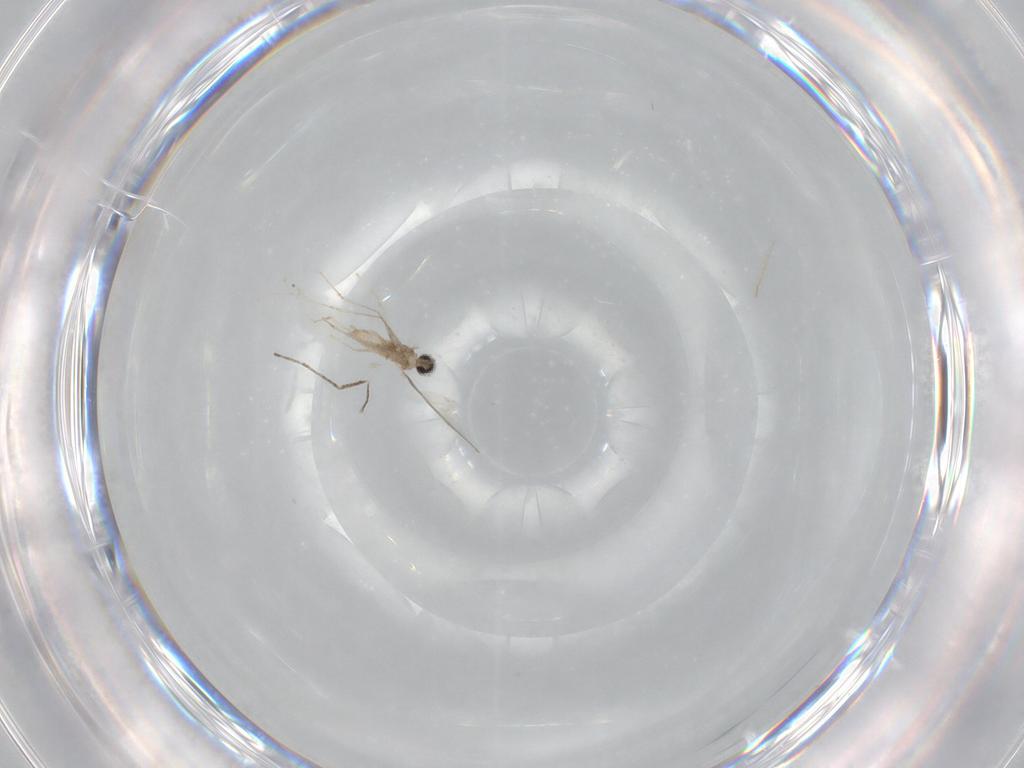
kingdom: Animalia
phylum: Arthropoda
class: Insecta
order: Diptera
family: Cecidomyiidae
